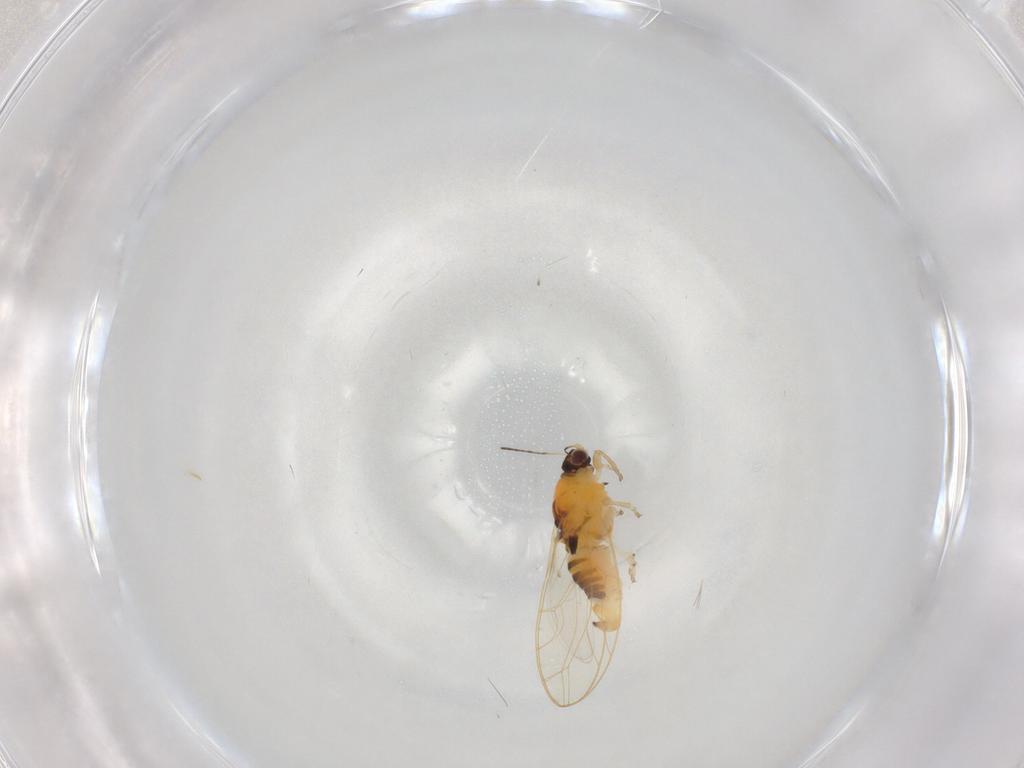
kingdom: Animalia
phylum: Arthropoda
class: Insecta
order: Diptera
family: Limoniidae
